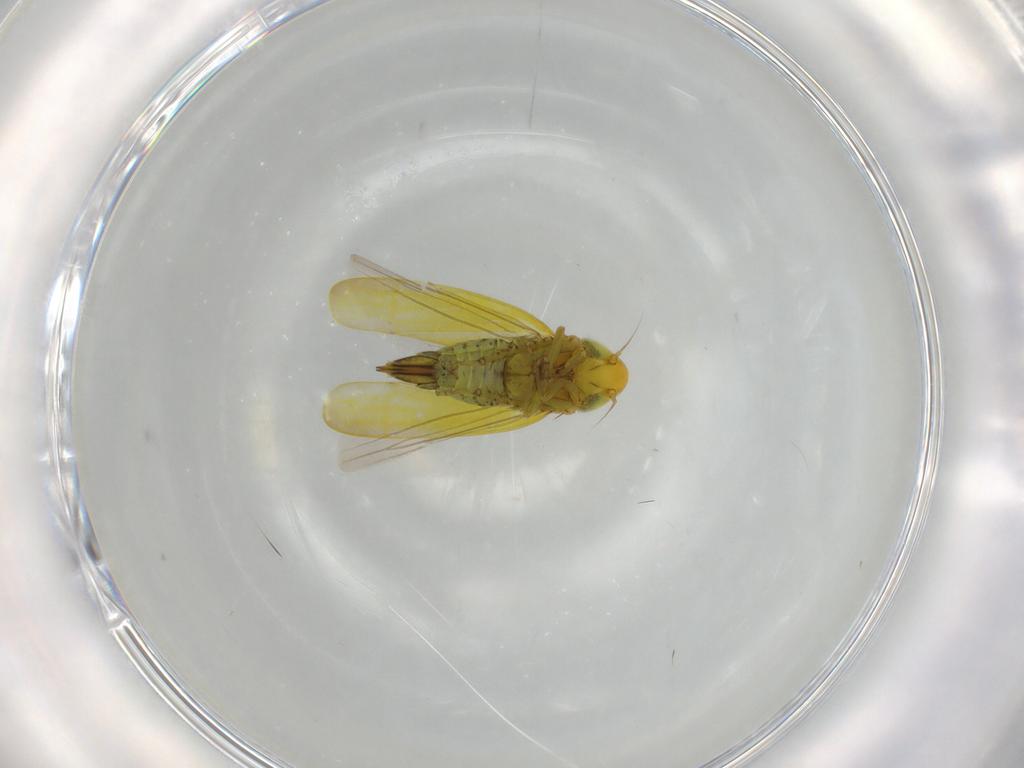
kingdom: Animalia
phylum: Arthropoda
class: Insecta
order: Hemiptera
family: Cicadellidae
